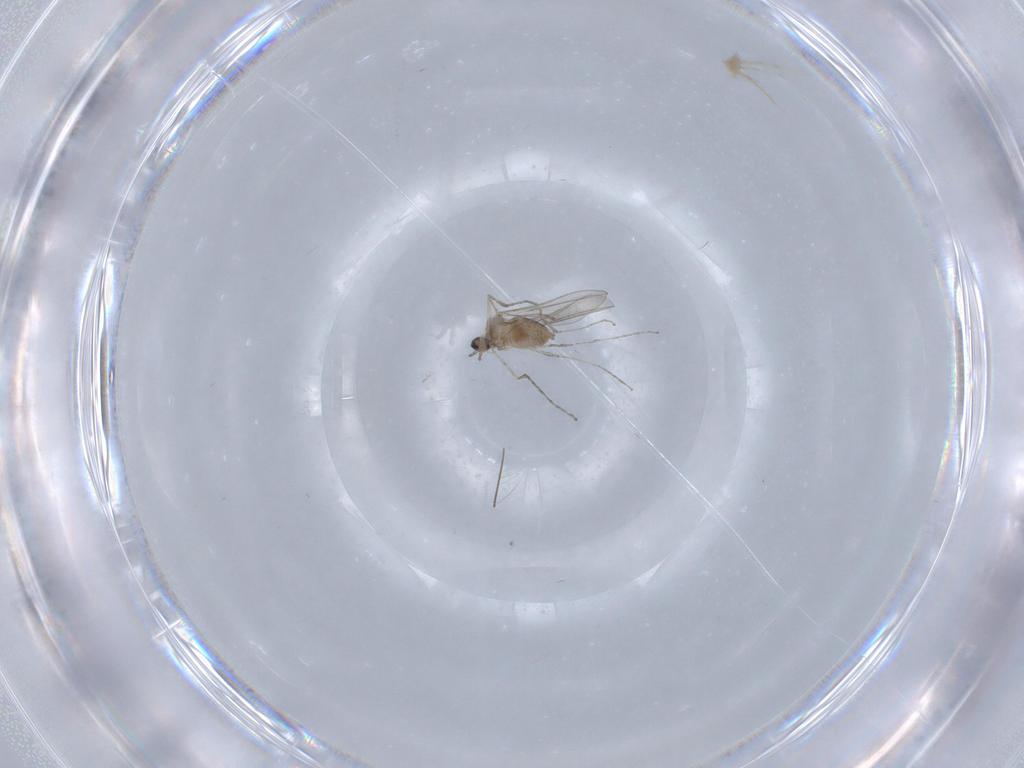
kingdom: Animalia
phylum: Arthropoda
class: Insecta
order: Diptera
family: Cecidomyiidae
